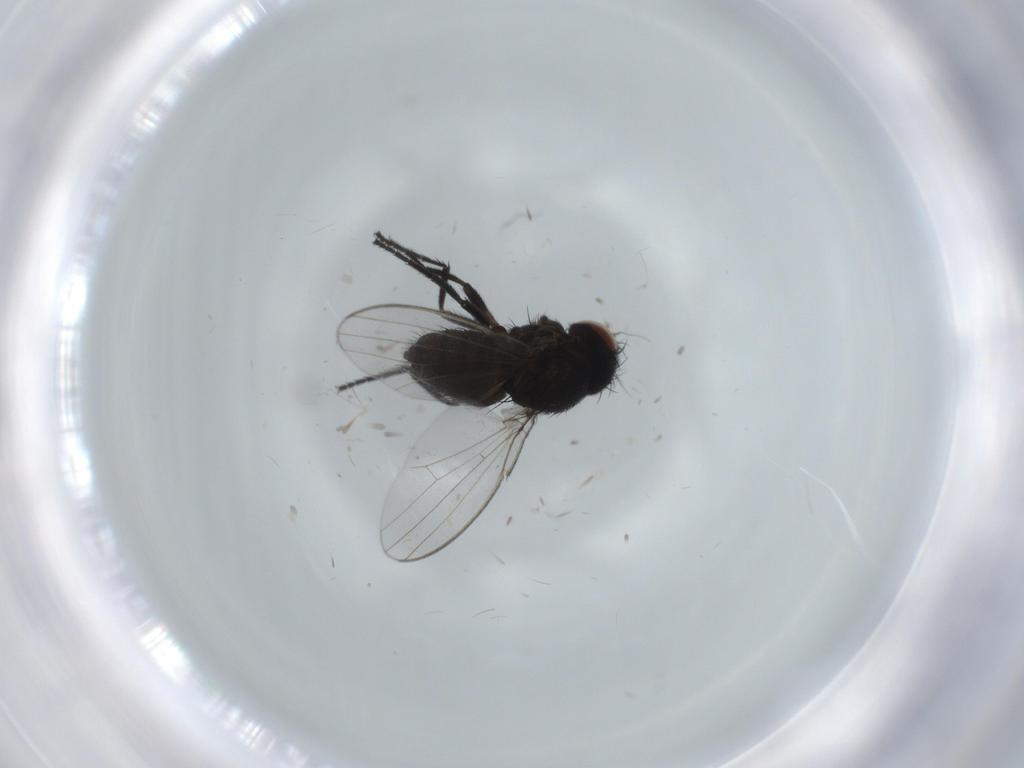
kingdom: Animalia
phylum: Arthropoda
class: Insecta
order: Diptera
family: Milichiidae
